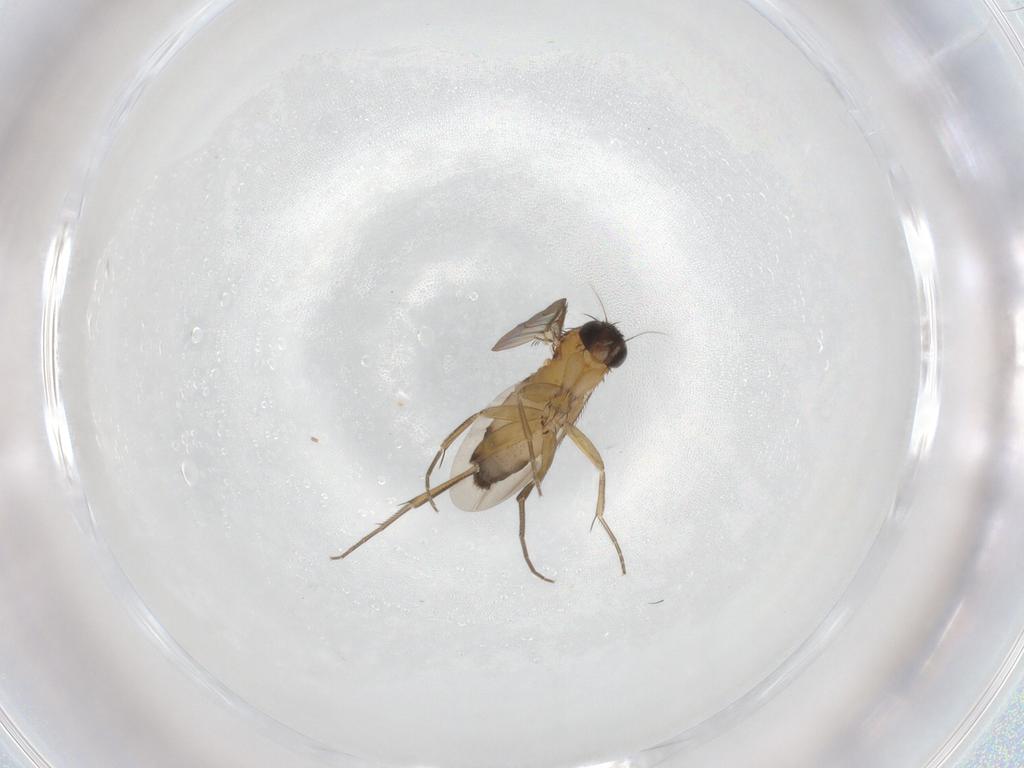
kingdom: Animalia
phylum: Arthropoda
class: Insecta
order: Diptera
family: Phoridae
